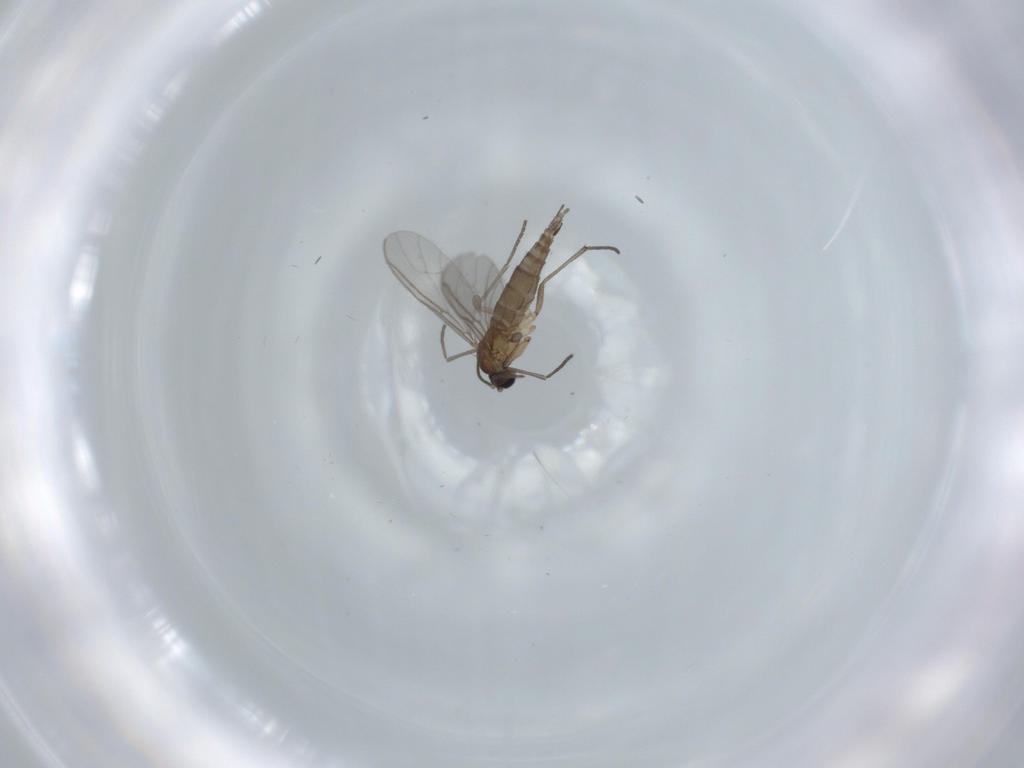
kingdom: Animalia
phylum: Arthropoda
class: Insecta
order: Diptera
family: Sciaridae
